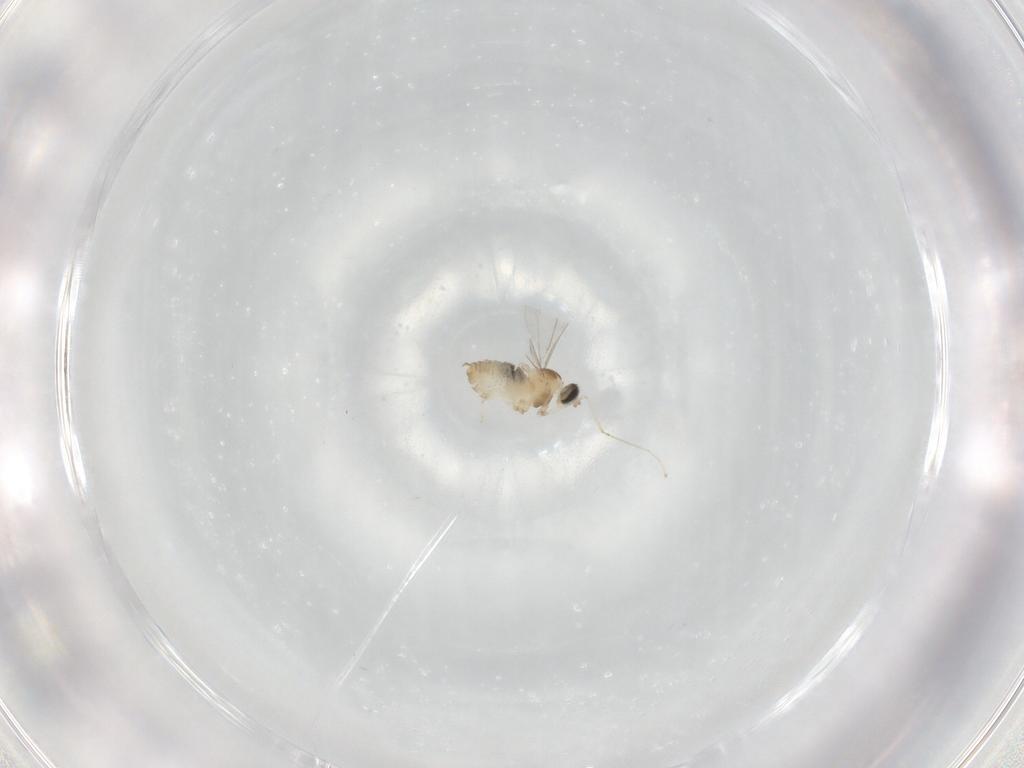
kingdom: Animalia
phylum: Arthropoda
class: Insecta
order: Diptera
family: Cecidomyiidae
